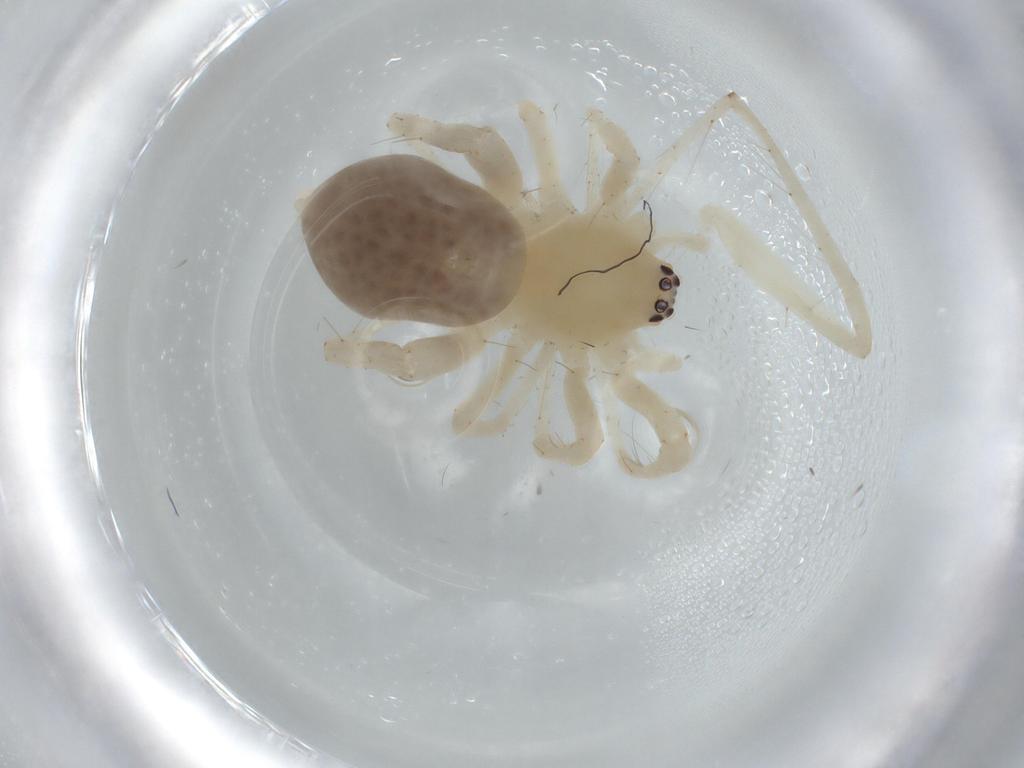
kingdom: Animalia
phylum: Arthropoda
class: Arachnida
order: Araneae
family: Anyphaenidae
